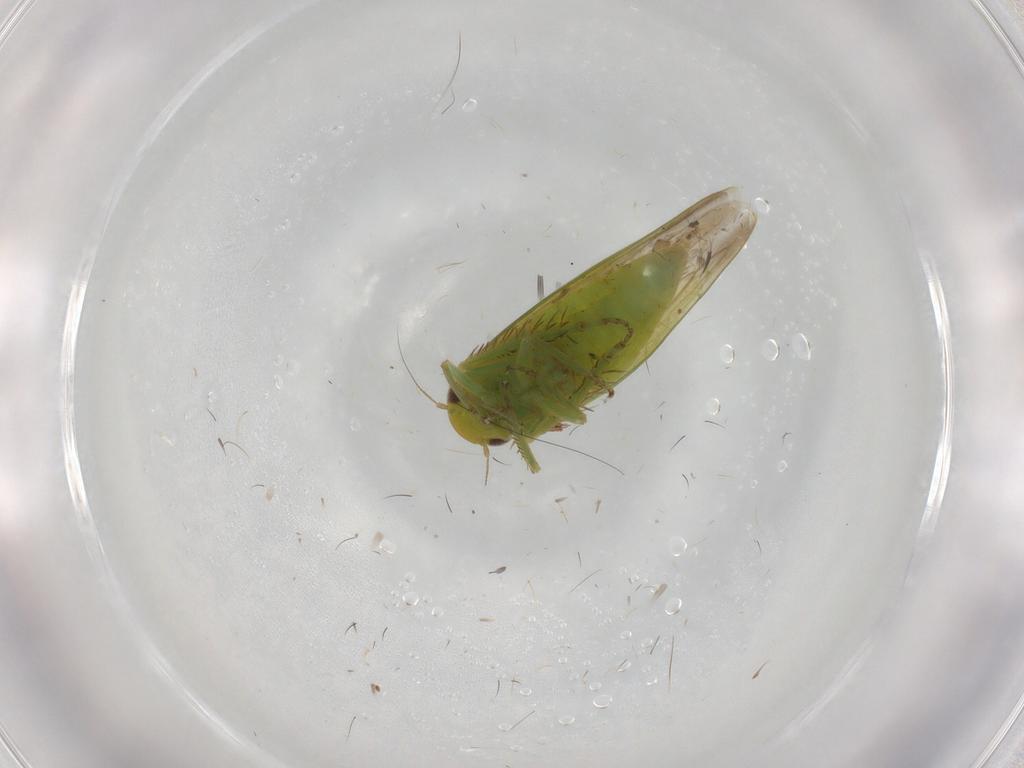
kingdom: Animalia
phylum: Arthropoda
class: Insecta
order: Hemiptera
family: Cicadellidae
